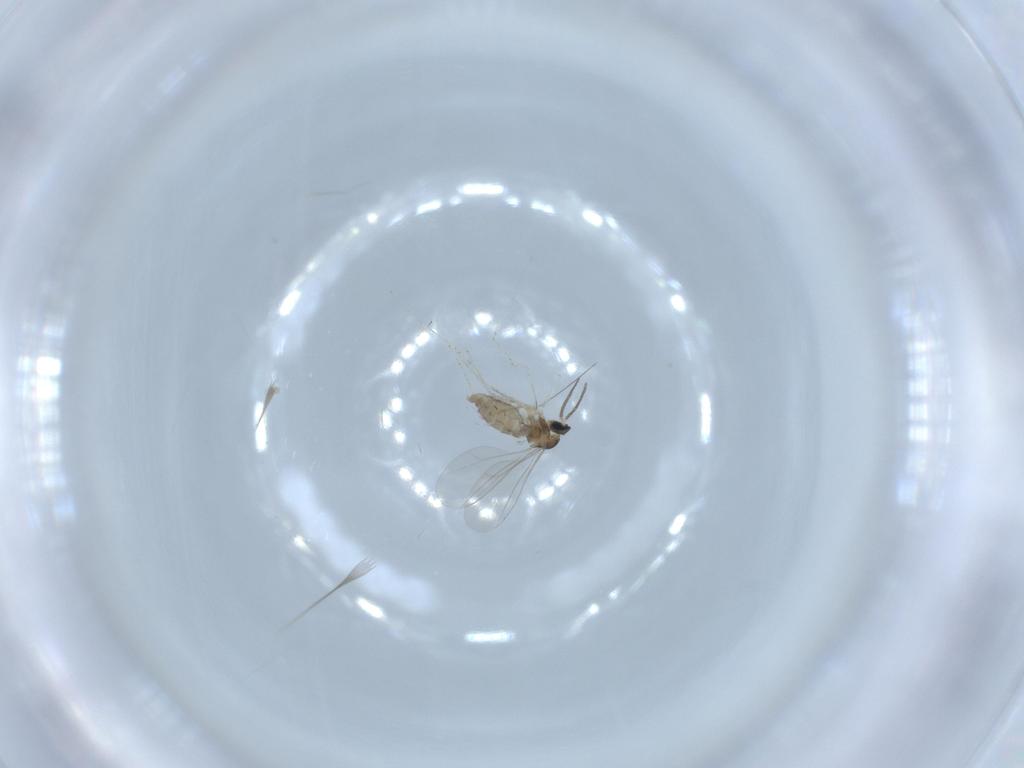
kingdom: Animalia
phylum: Arthropoda
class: Insecta
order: Diptera
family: Cecidomyiidae
